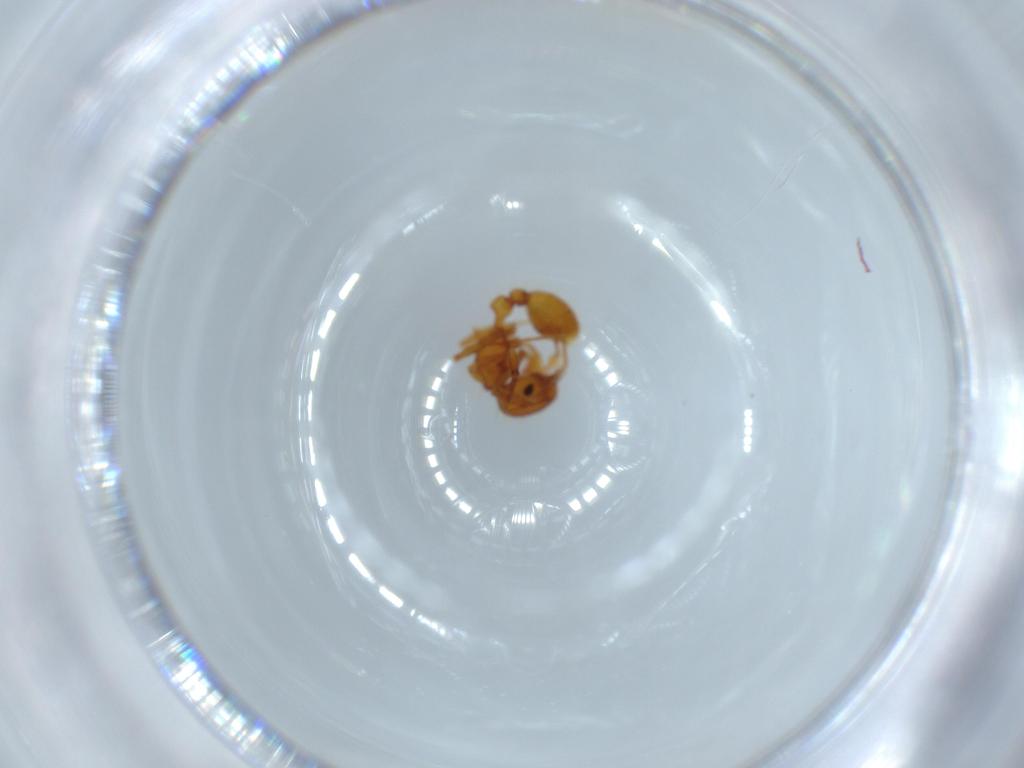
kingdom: Animalia
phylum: Arthropoda
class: Insecta
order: Hymenoptera
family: Formicidae
